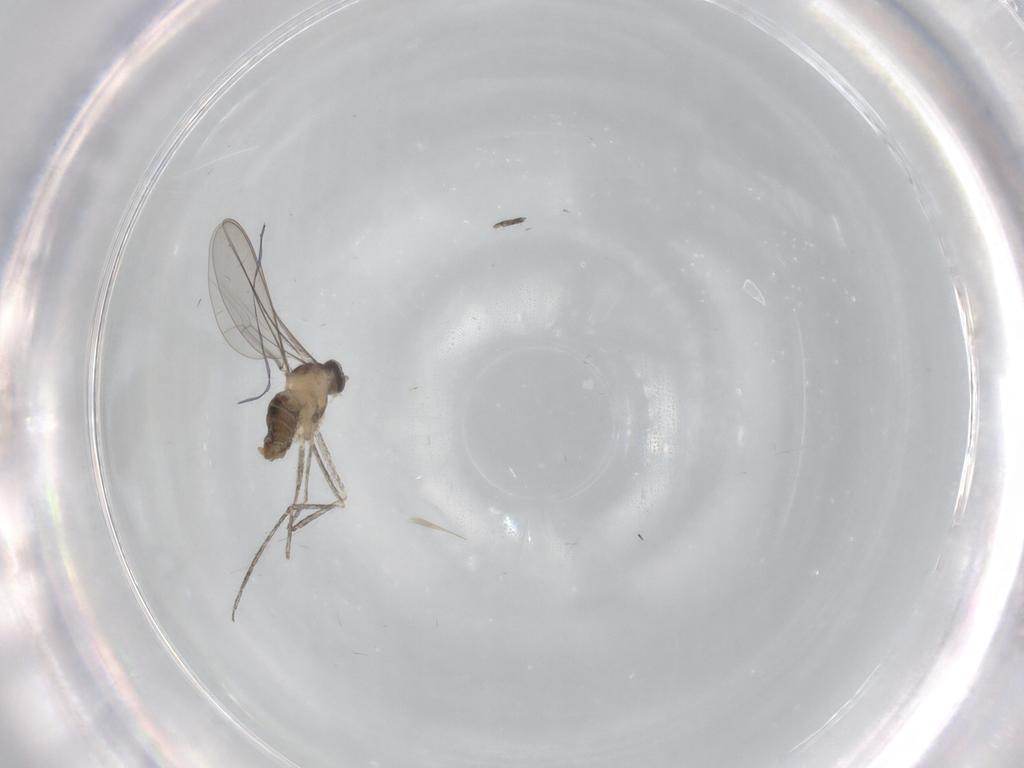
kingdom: Animalia
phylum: Arthropoda
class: Insecta
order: Diptera
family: Cecidomyiidae
